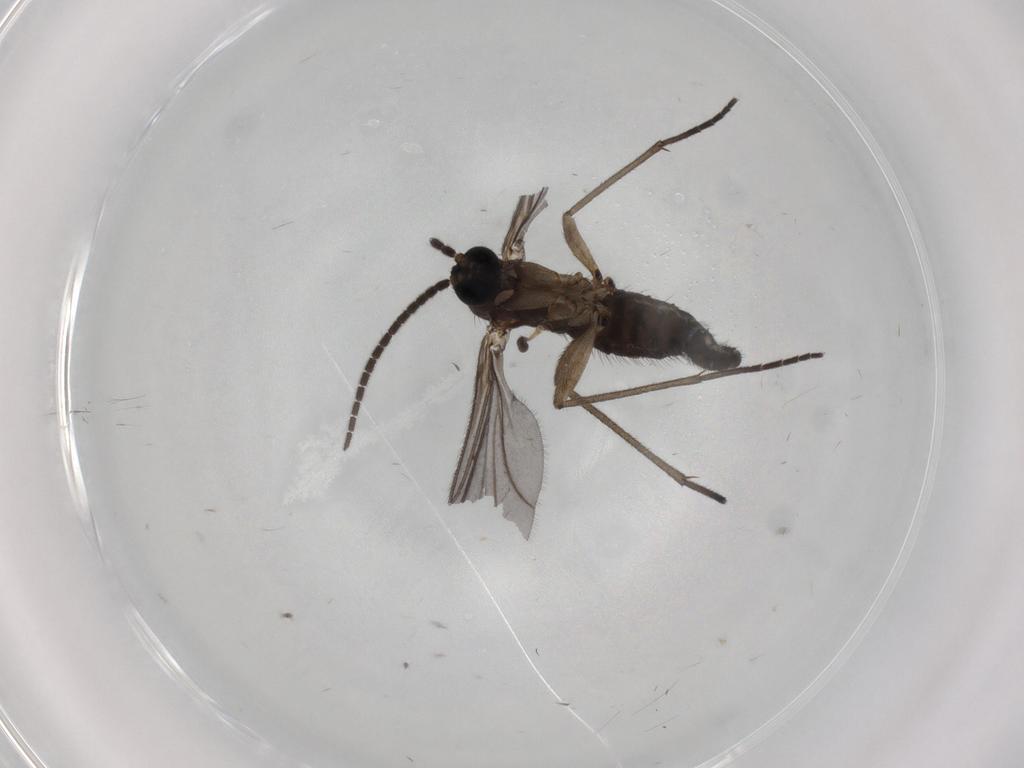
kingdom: Animalia
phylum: Arthropoda
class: Insecta
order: Diptera
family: Sciaridae
